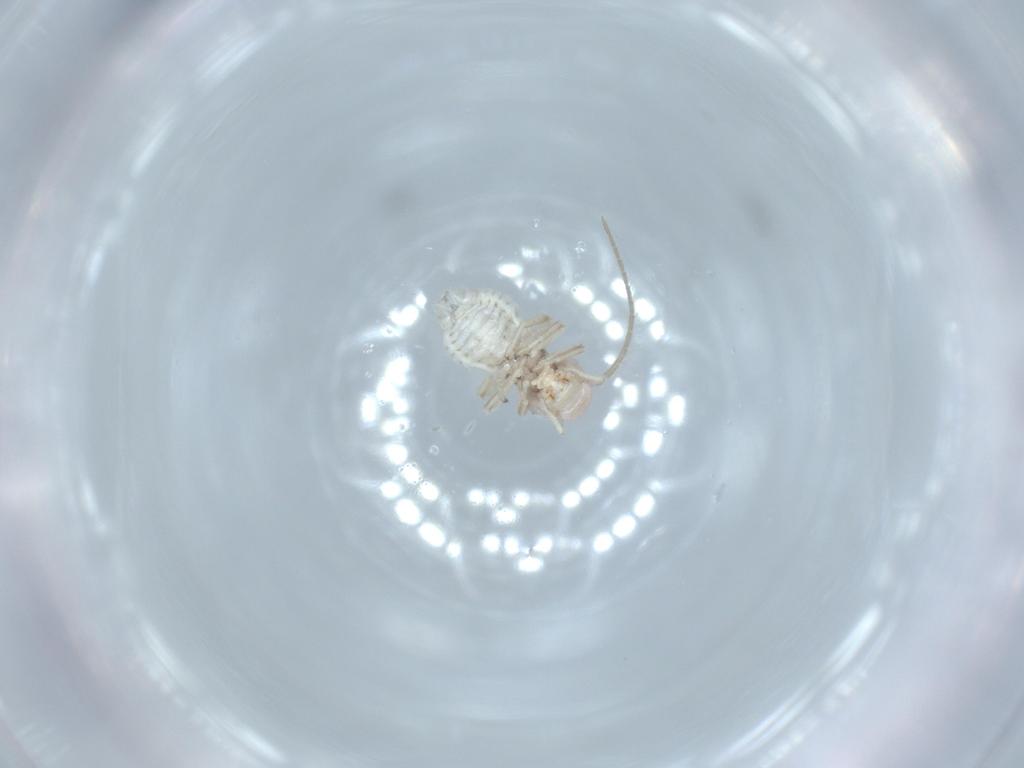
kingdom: Animalia
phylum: Arthropoda
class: Insecta
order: Psocodea
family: Amphipsocidae
